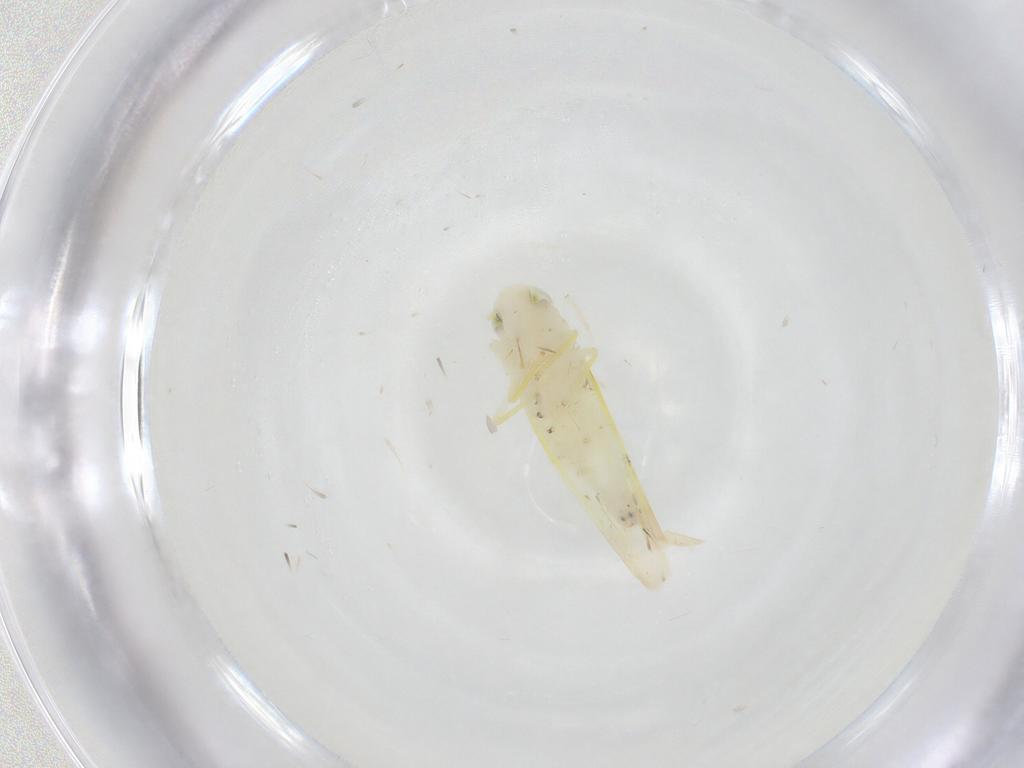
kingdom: Animalia
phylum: Arthropoda
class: Insecta
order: Hemiptera
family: Cicadellidae
